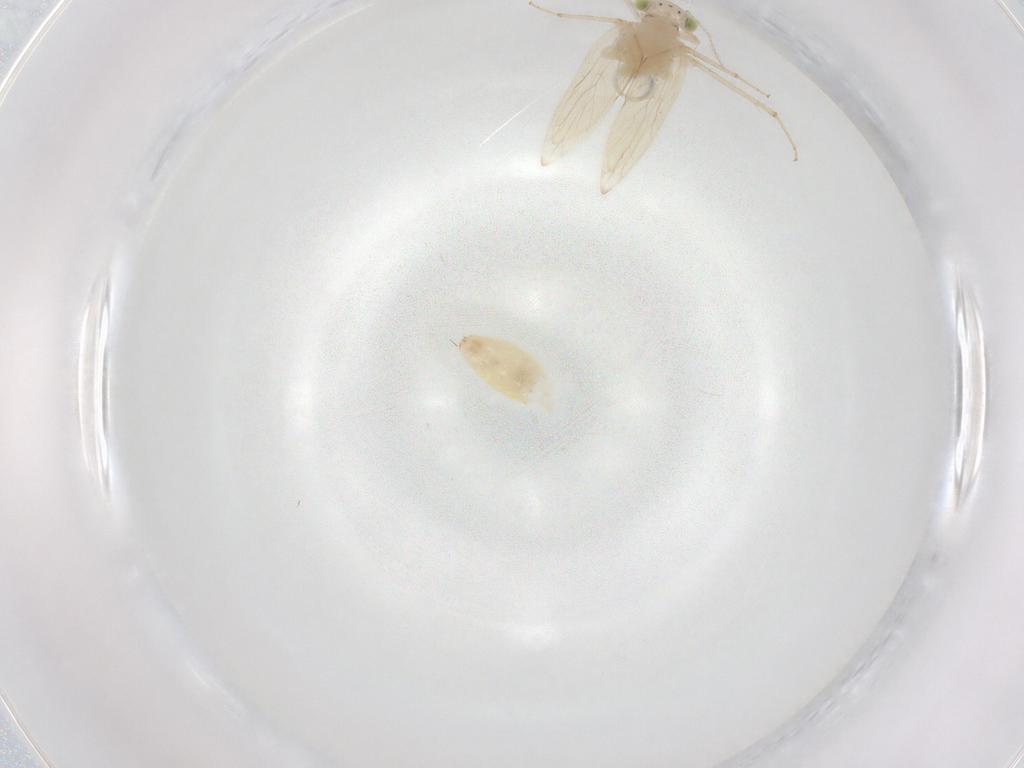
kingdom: Animalia
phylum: Arthropoda
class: Insecta
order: Psocodea
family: Lepidopsocidae
